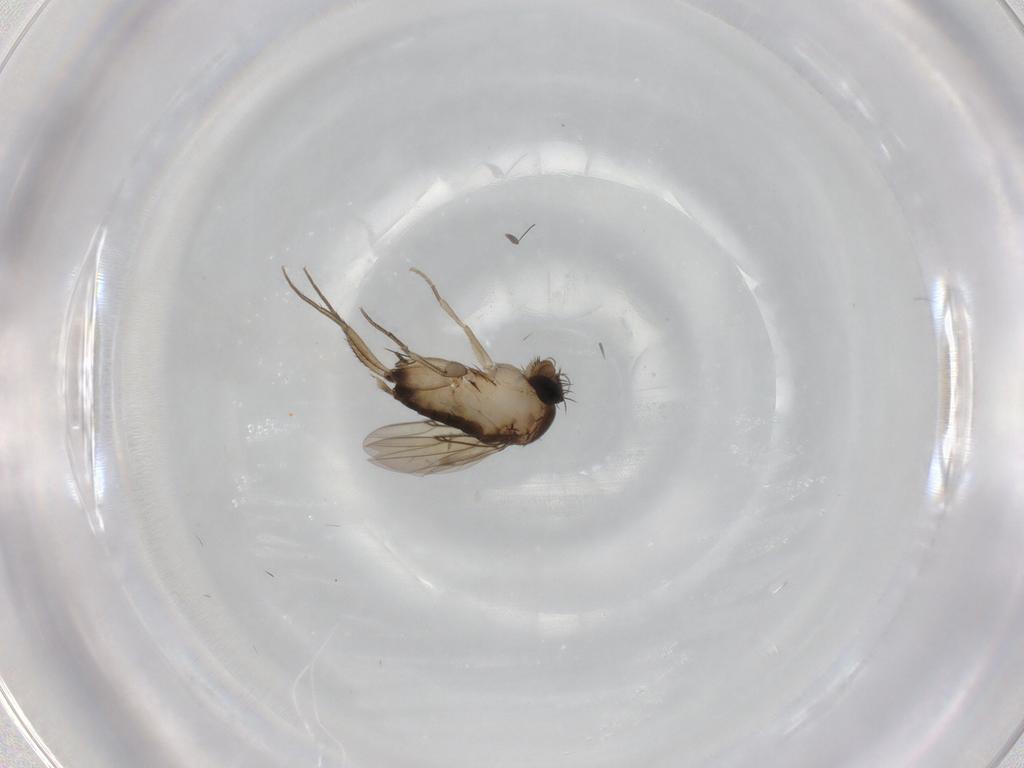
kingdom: Animalia
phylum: Arthropoda
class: Insecta
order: Diptera
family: Phoridae
